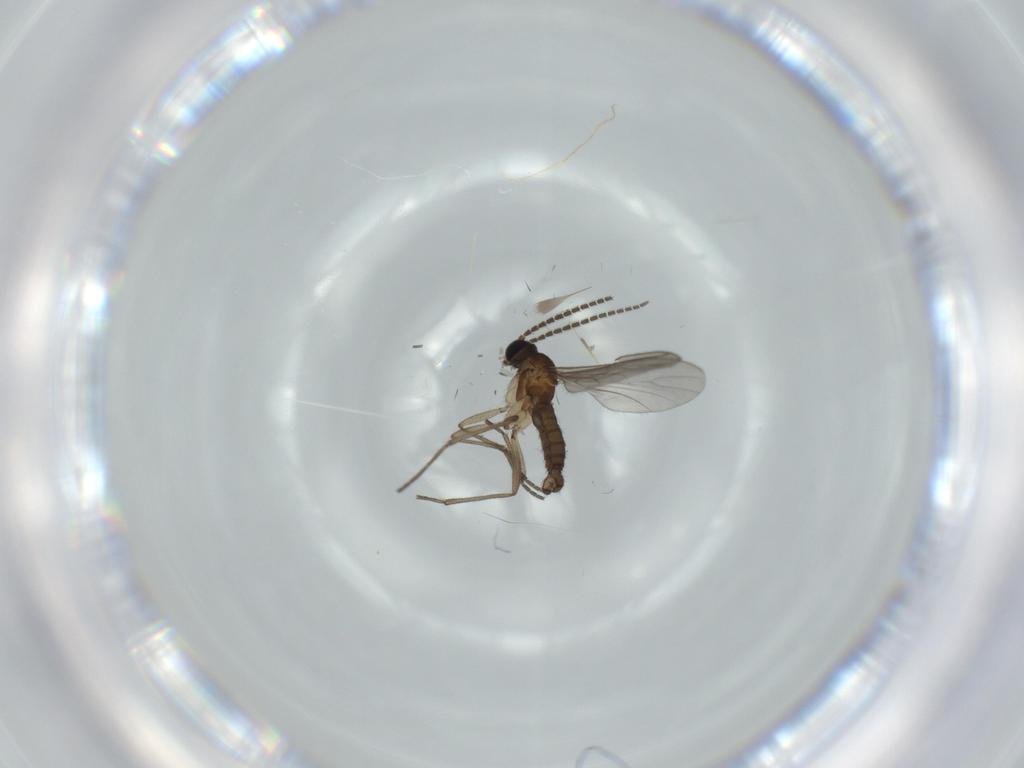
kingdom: Animalia
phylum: Arthropoda
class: Insecta
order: Diptera
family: Sciaridae
